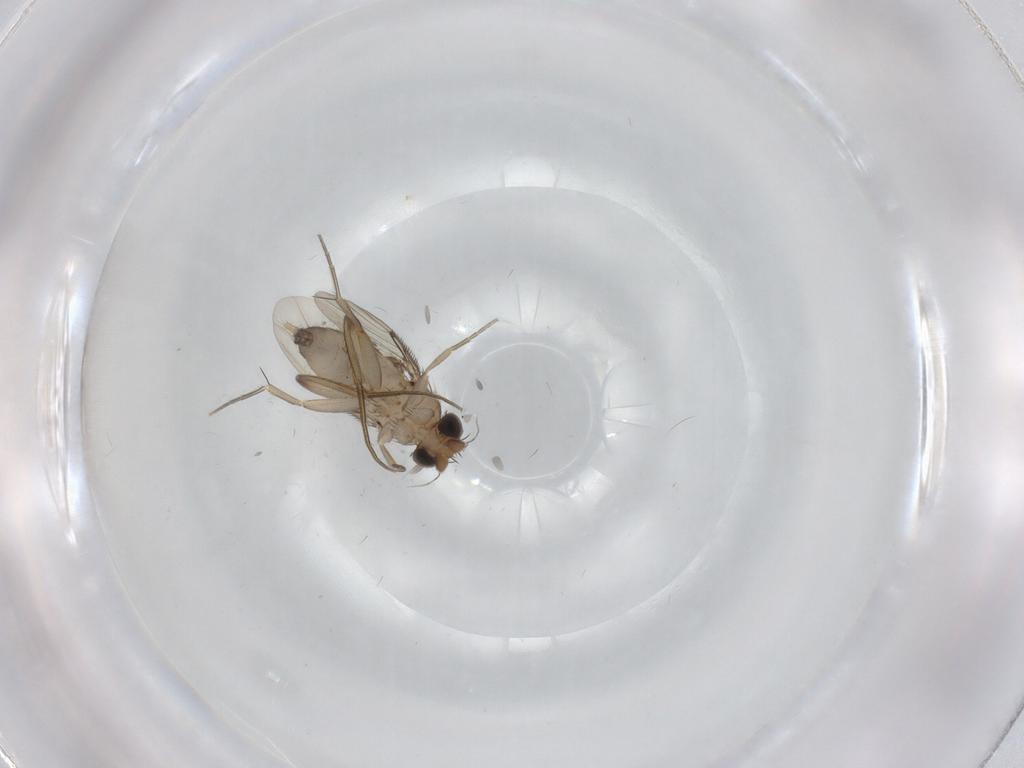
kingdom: Animalia
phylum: Arthropoda
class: Insecta
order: Diptera
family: Phoridae
